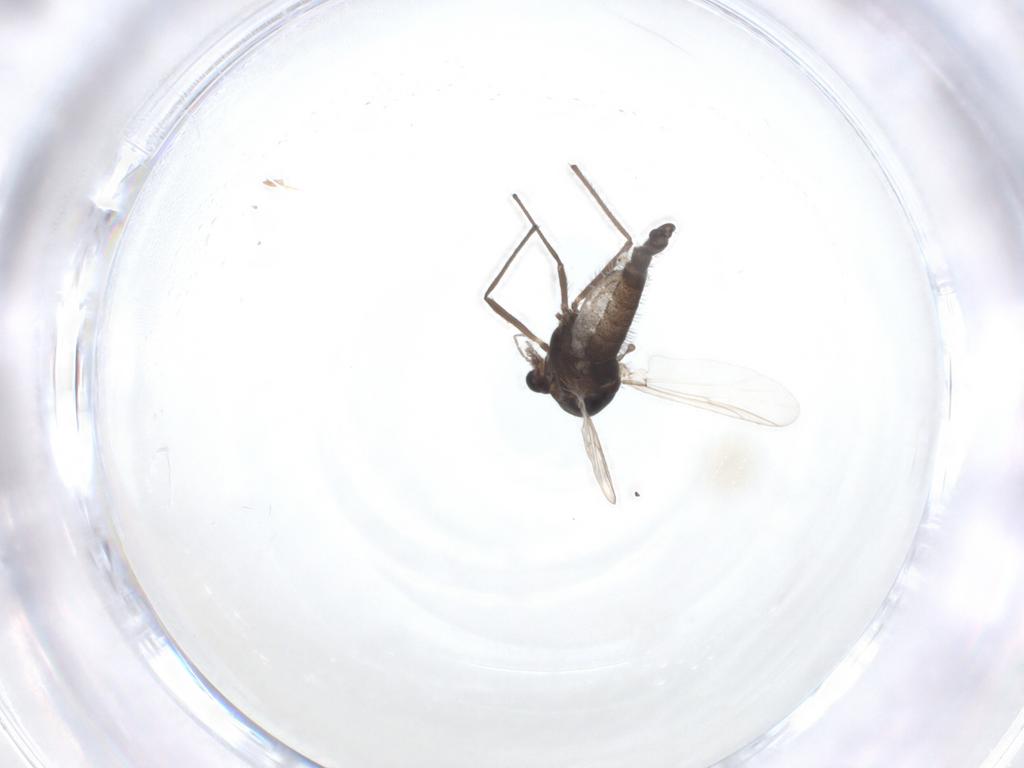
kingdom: Animalia
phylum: Arthropoda
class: Insecta
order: Diptera
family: Chironomidae
